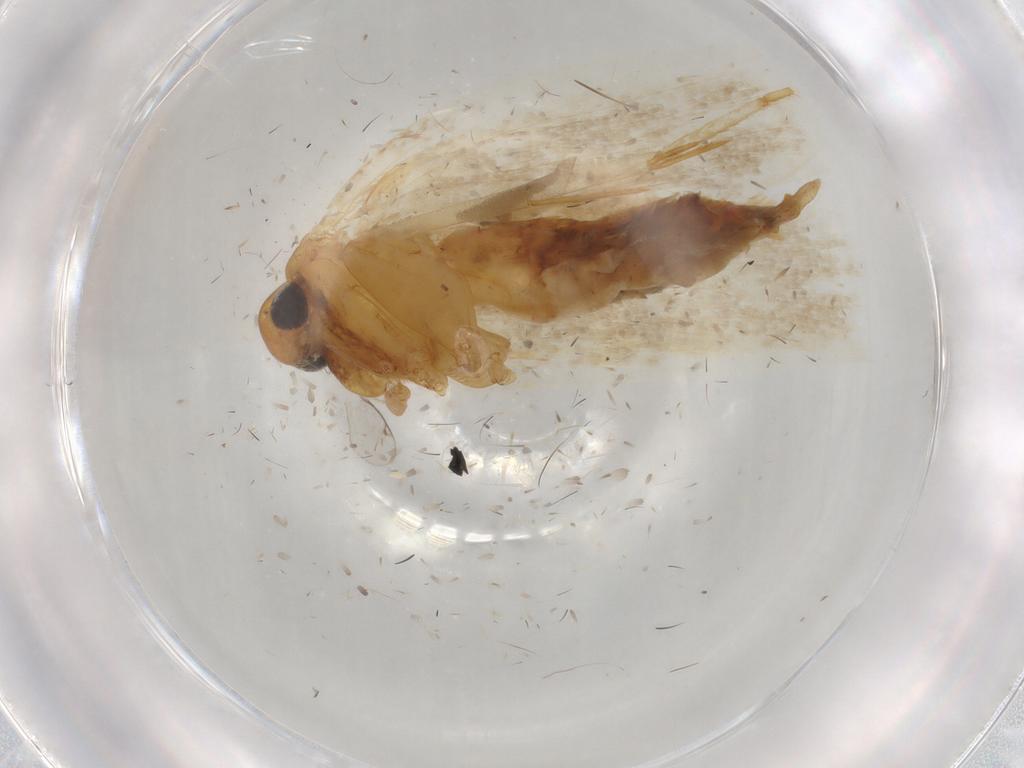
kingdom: Animalia
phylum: Arthropoda
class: Insecta
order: Lepidoptera
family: Gelechiidae
